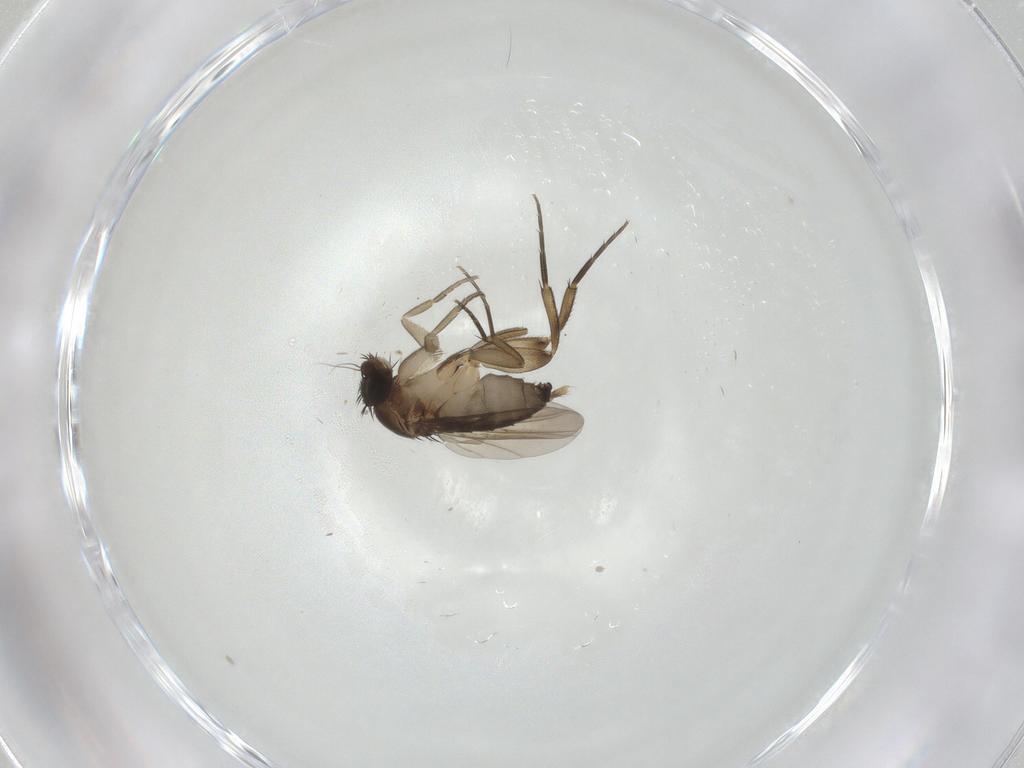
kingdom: Animalia
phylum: Arthropoda
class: Insecta
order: Diptera
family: Phoridae
